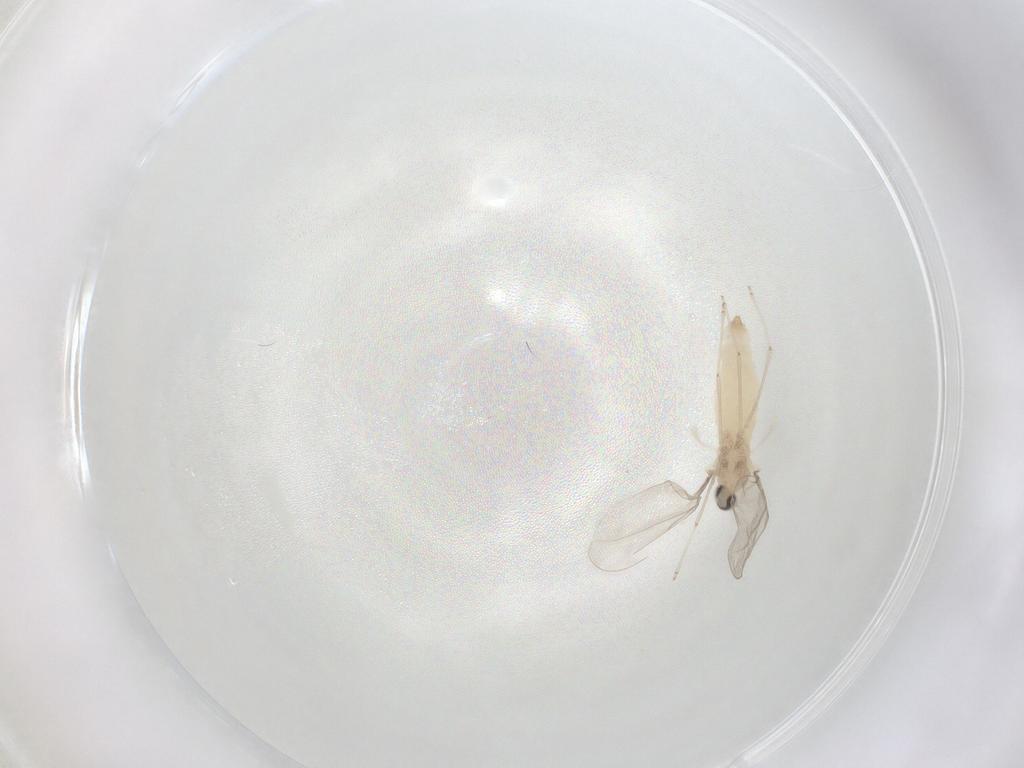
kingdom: Animalia
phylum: Arthropoda
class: Insecta
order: Diptera
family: Cecidomyiidae
